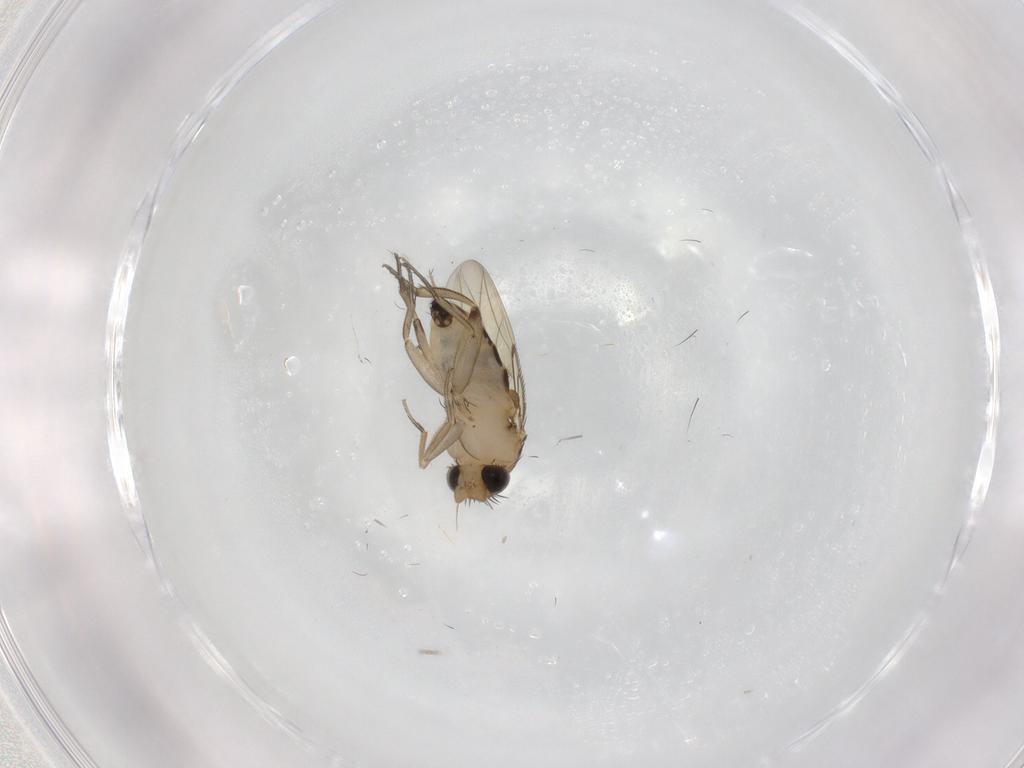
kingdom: Animalia
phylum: Arthropoda
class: Insecta
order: Diptera
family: Phoridae
